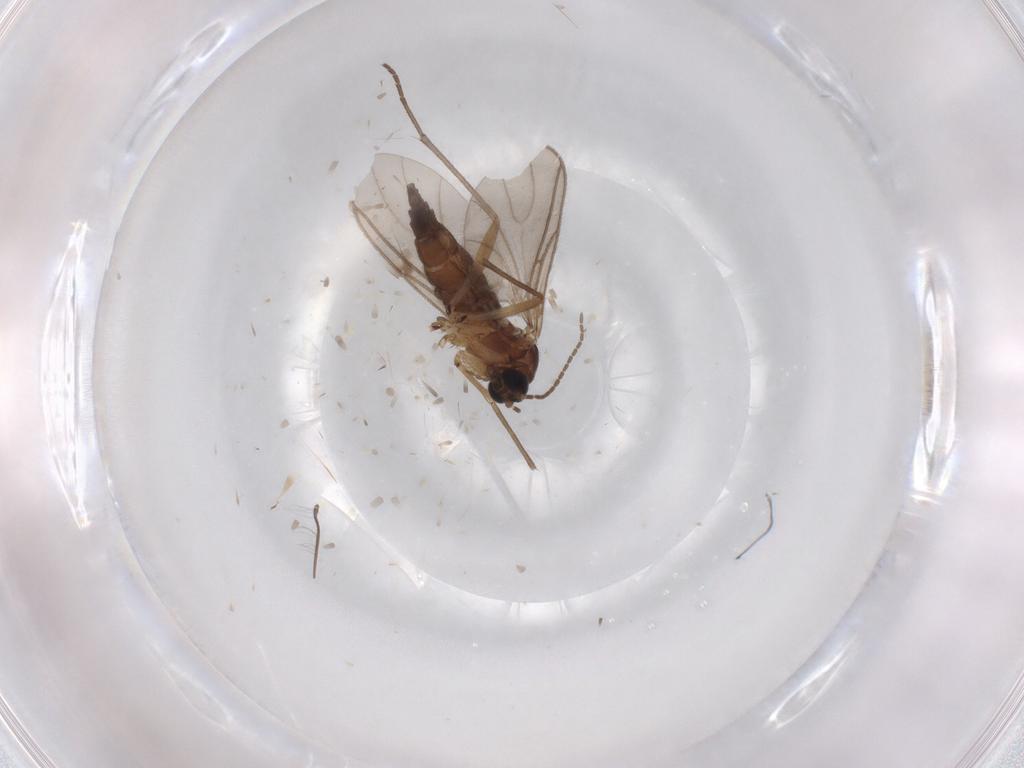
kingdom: Animalia
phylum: Arthropoda
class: Insecta
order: Diptera
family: Sciaridae
